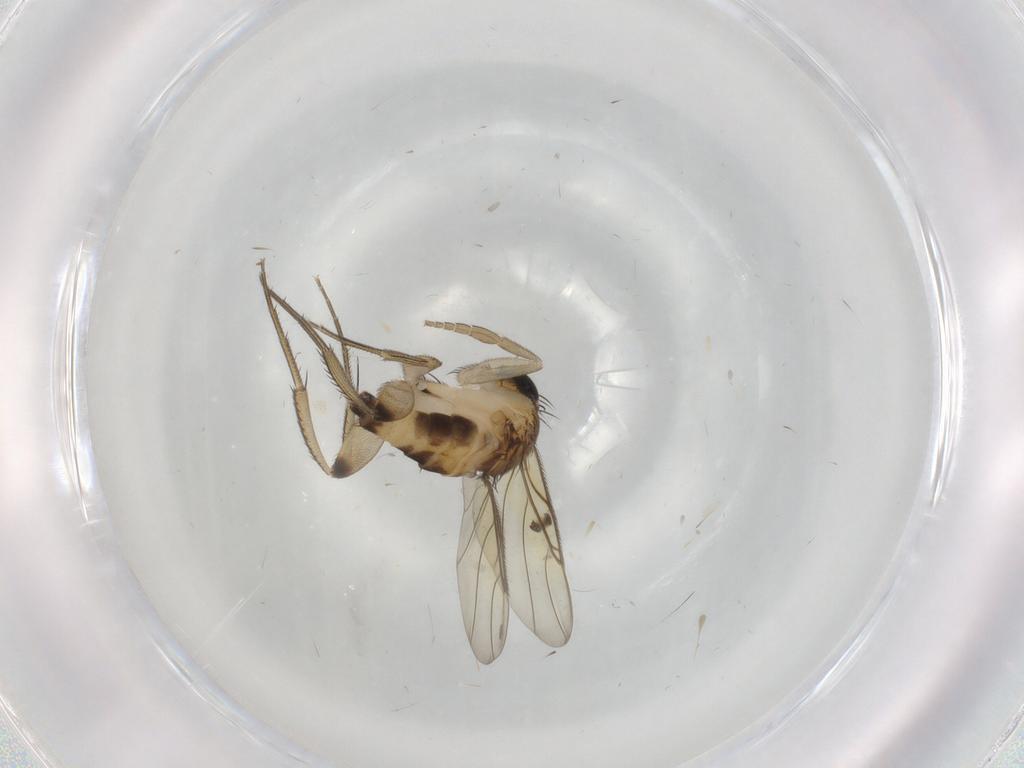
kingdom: Animalia
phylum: Arthropoda
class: Insecta
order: Diptera
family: Phoridae
